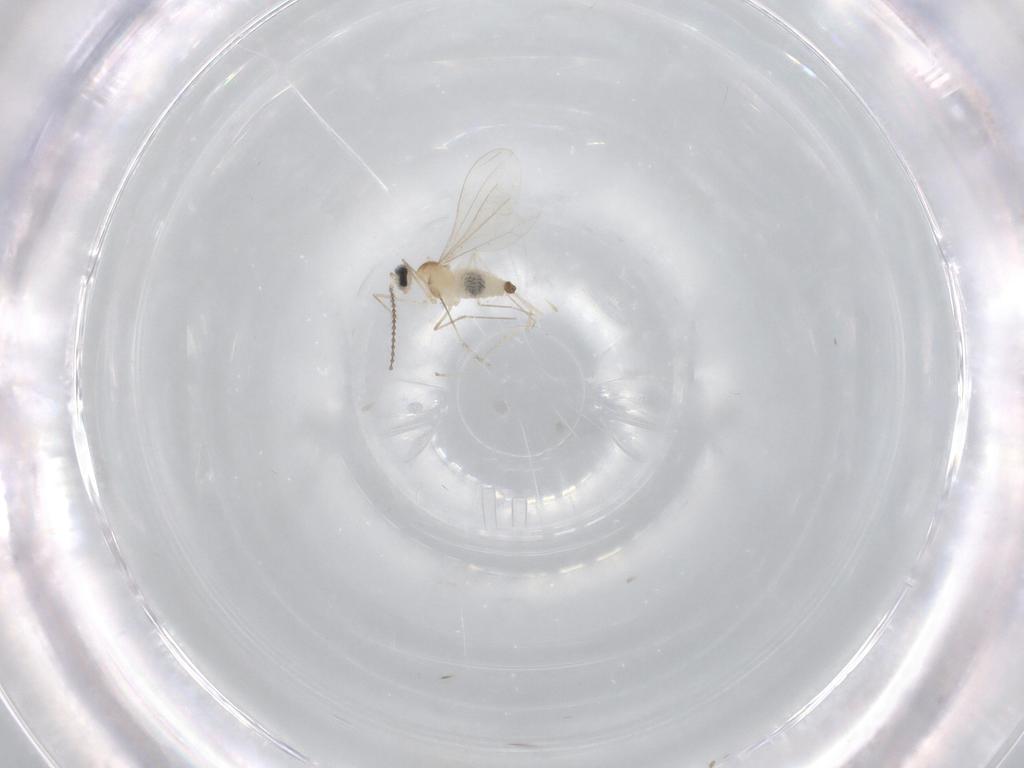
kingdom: Animalia
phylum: Arthropoda
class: Insecta
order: Diptera
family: Cecidomyiidae
